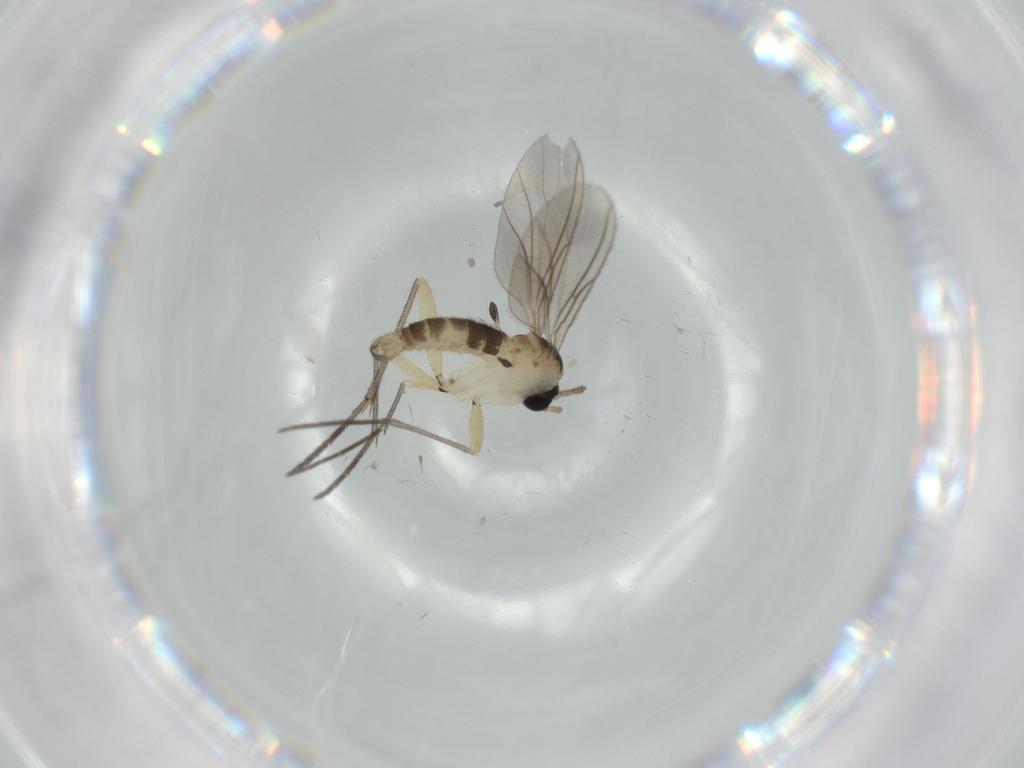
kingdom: Animalia
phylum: Arthropoda
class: Insecta
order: Diptera
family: Sciaridae
